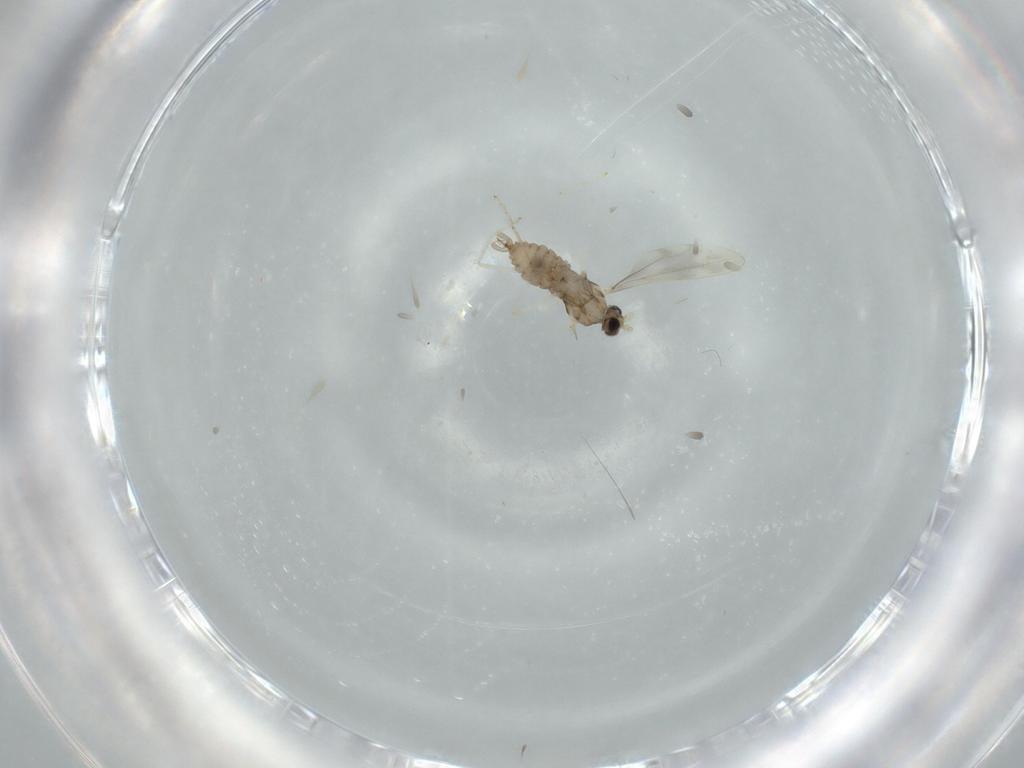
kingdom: Animalia
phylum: Arthropoda
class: Insecta
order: Diptera
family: Cecidomyiidae
